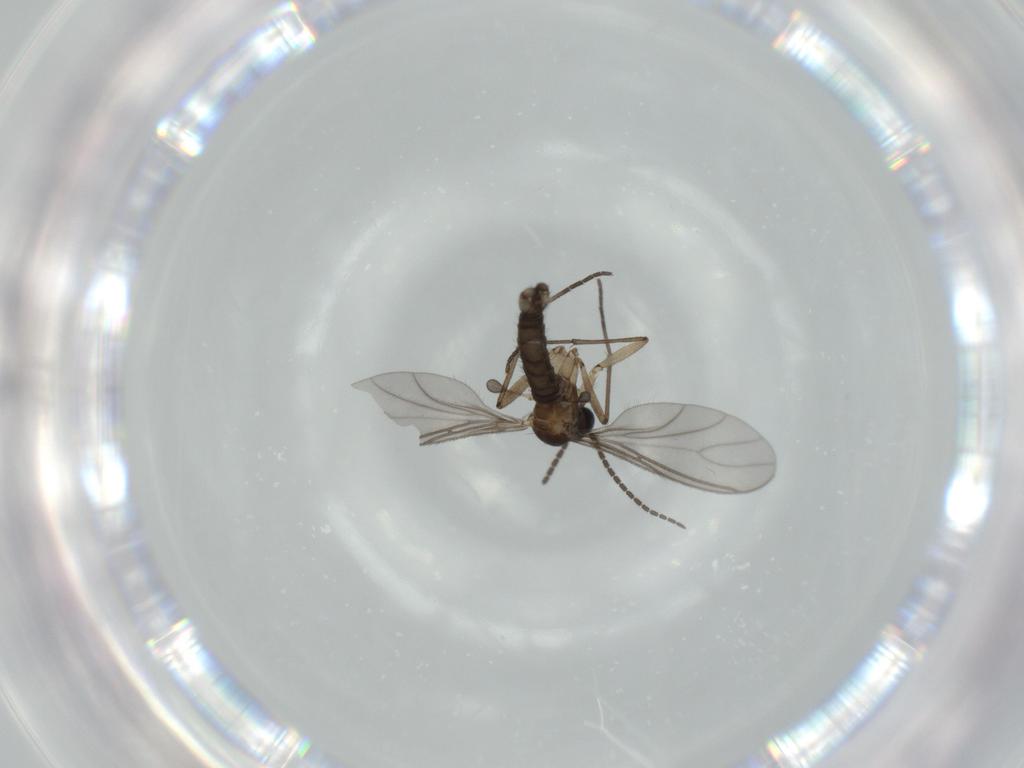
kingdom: Animalia
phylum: Arthropoda
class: Insecta
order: Diptera
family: Sciaridae
